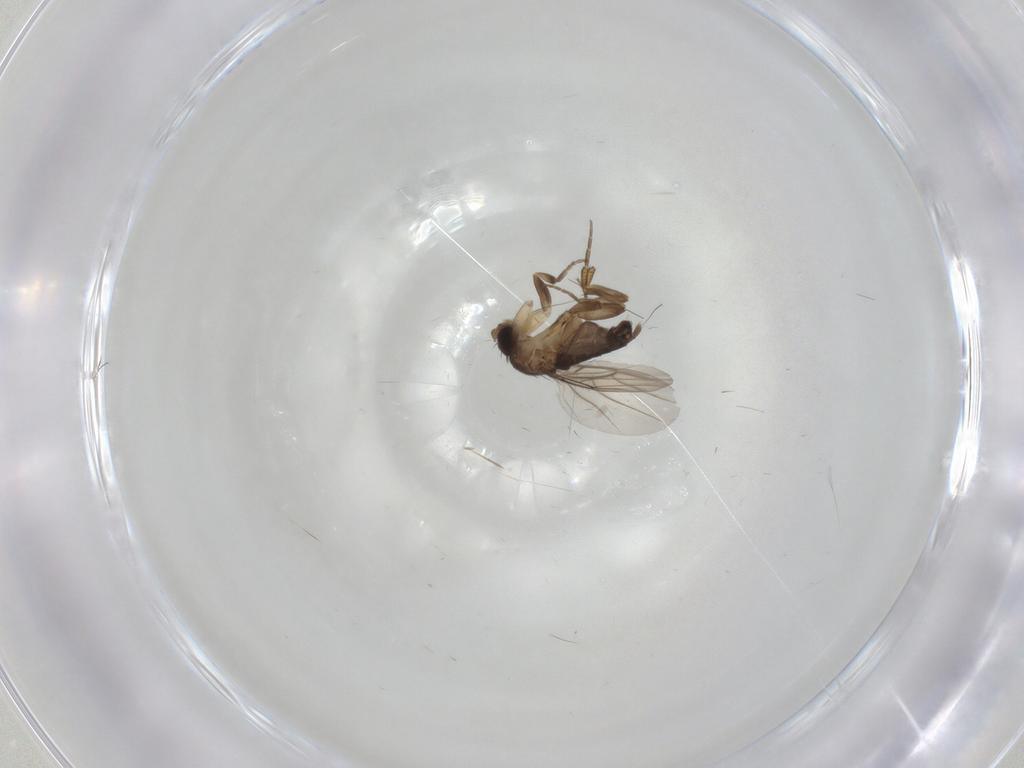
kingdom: Animalia
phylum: Arthropoda
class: Insecta
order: Diptera
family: Phoridae
